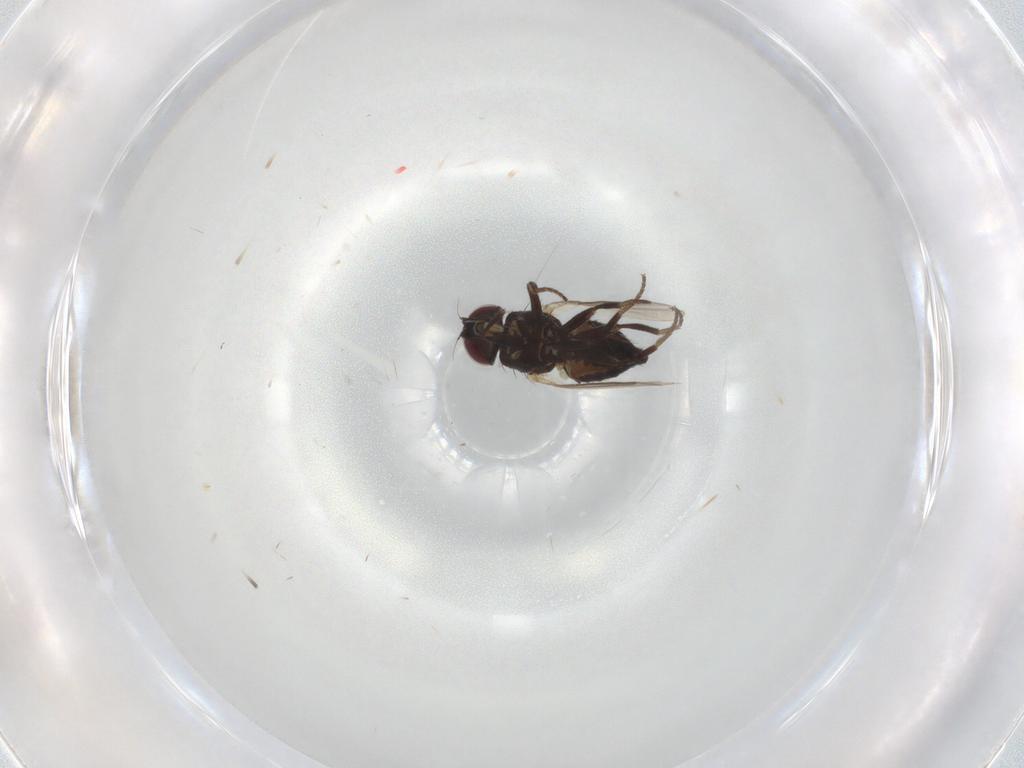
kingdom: Animalia
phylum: Arthropoda
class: Insecta
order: Diptera
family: Agromyzidae
